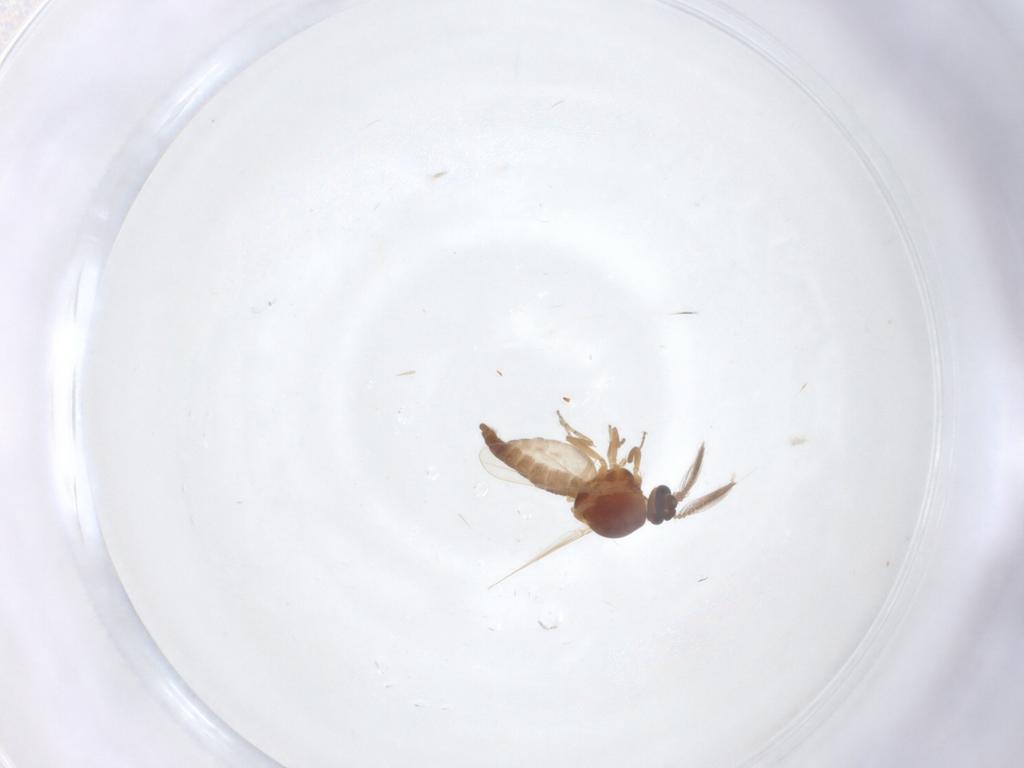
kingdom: Animalia
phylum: Arthropoda
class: Insecta
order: Diptera
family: Ceratopogonidae
